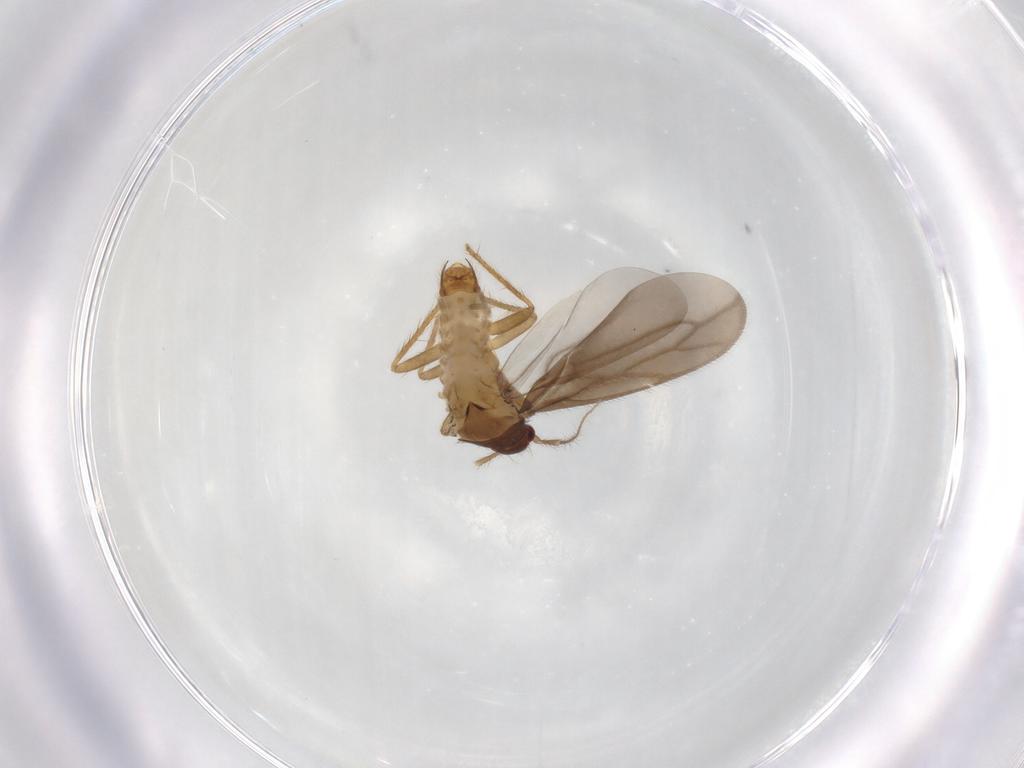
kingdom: Animalia
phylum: Arthropoda
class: Insecta
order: Hemiptera
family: Ceratocombidae
